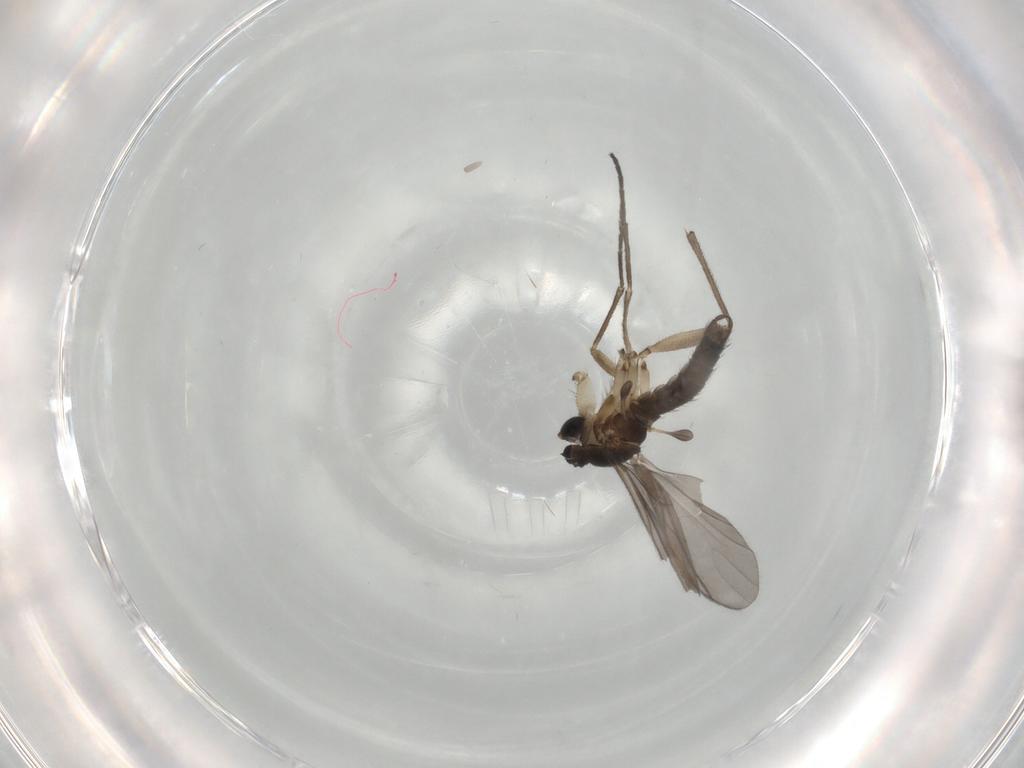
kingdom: Animalia
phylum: Arthropoda
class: Insecta
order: Diptera
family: Sciaridae
